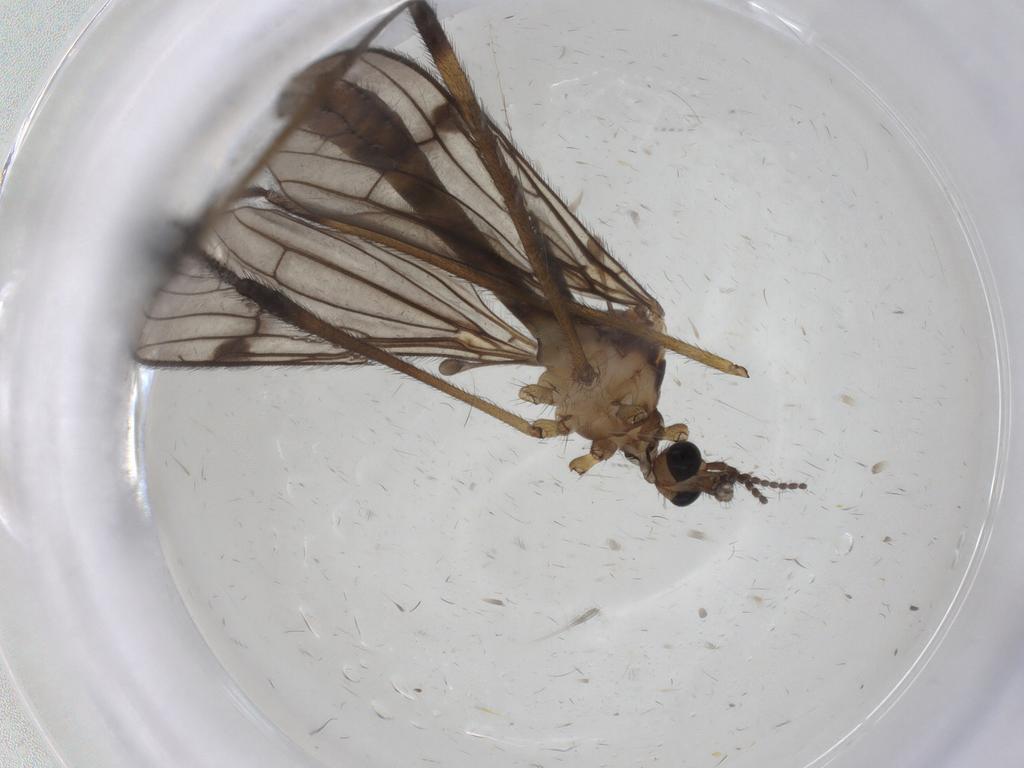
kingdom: Animalia
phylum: Arthropoda
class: Insecta
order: Diptera
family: Limoniidae
